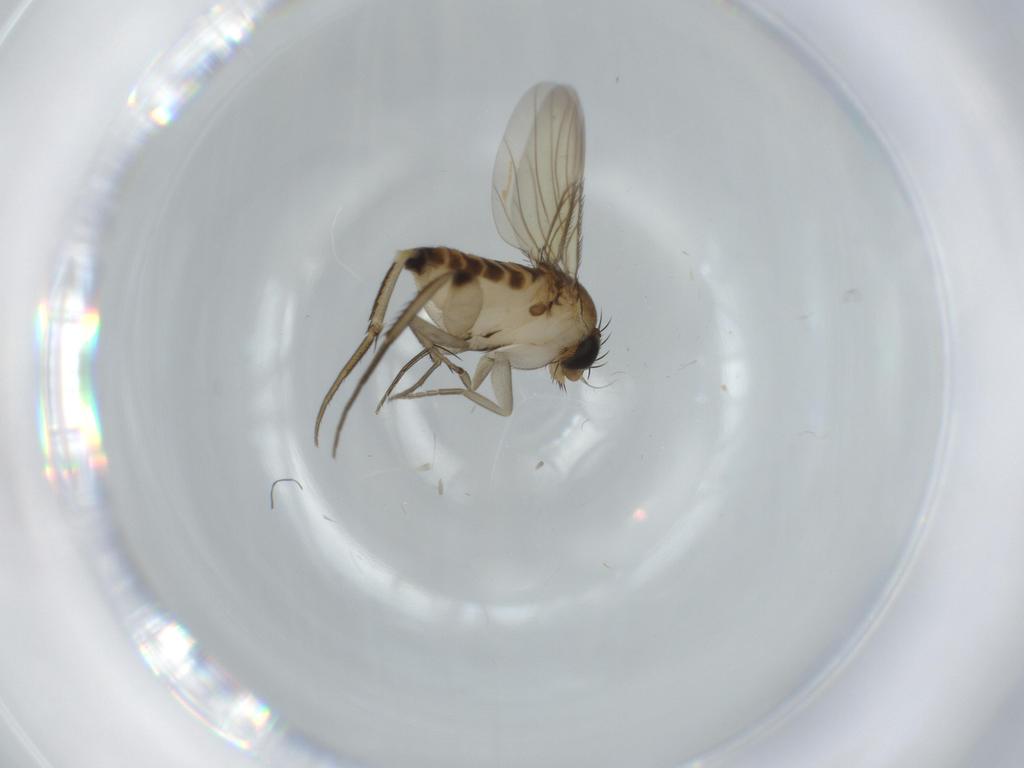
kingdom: Animalia
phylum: Arthropoda
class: Insecta
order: Diptera
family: Phoridae
